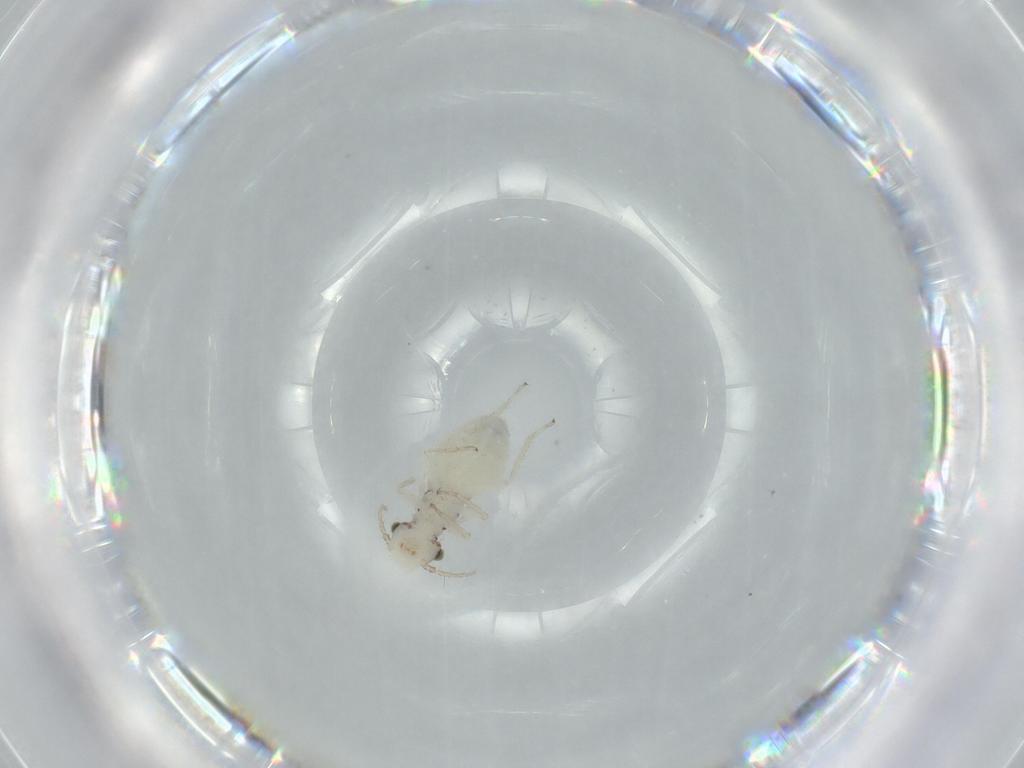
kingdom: Animalia
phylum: Arthropoda
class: Insecta
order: Psocodea
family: Pseudocaeciliidae
